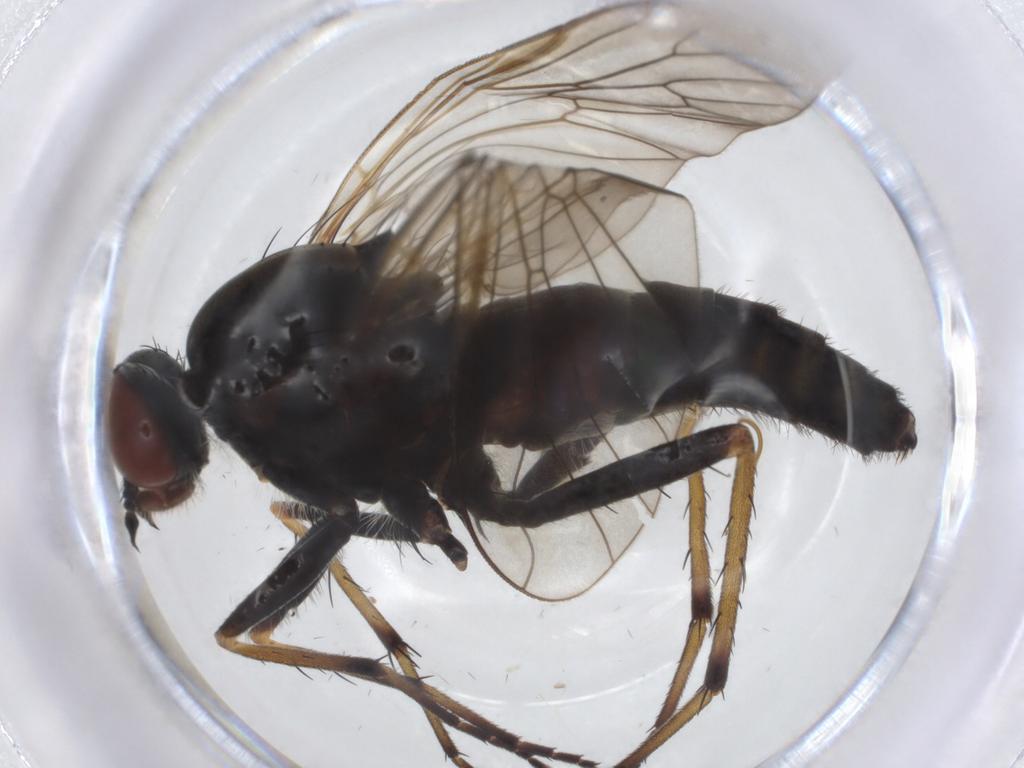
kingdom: Animalia
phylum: Arthropoda
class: Insecta
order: Diptera
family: Therevidae
